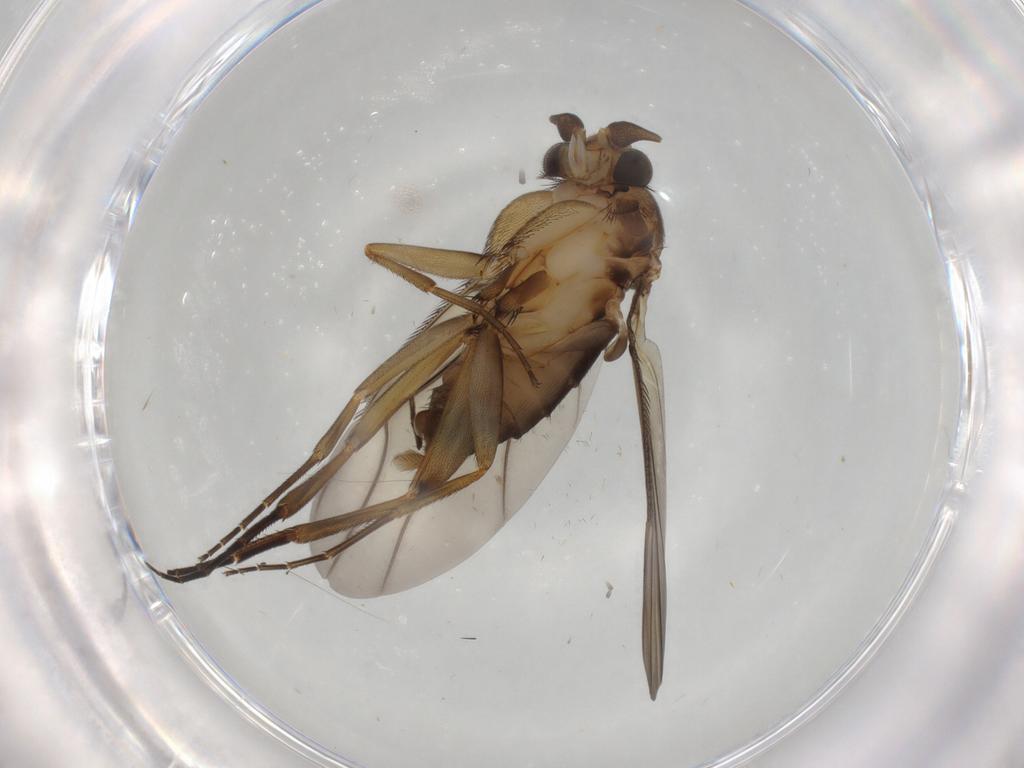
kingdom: Animalia
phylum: Arthropoda
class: Insecta
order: Diptera
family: Phoridae
